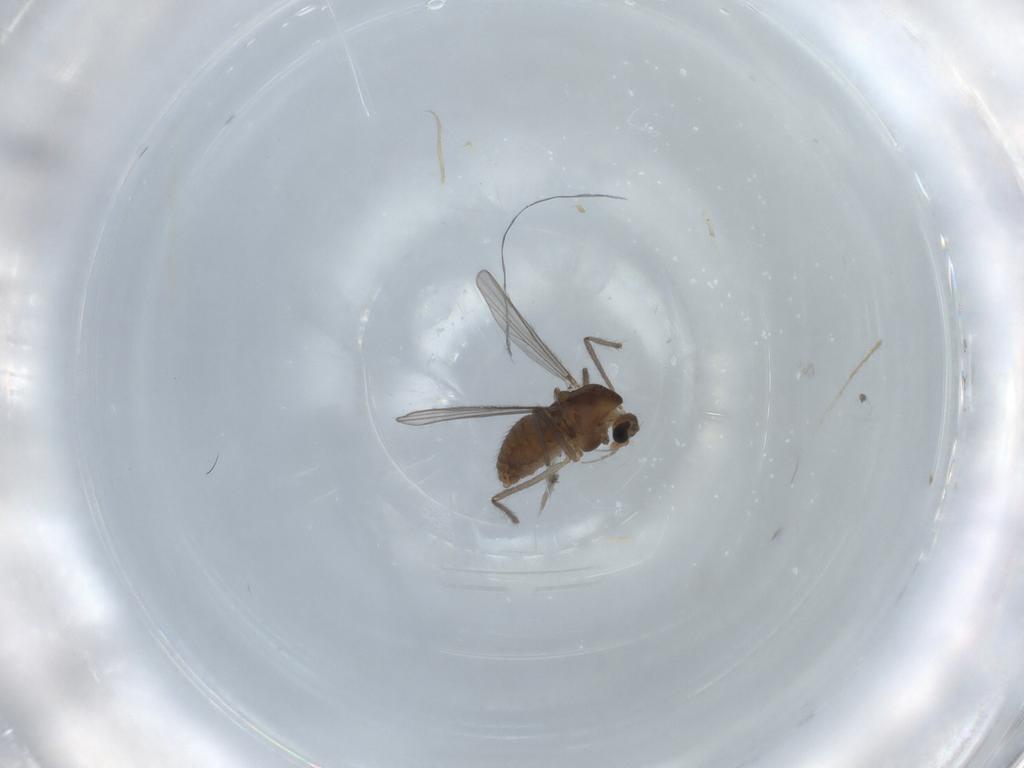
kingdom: Animalia
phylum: Arthropoda
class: Insecta
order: Diptera
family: Chironomidae
